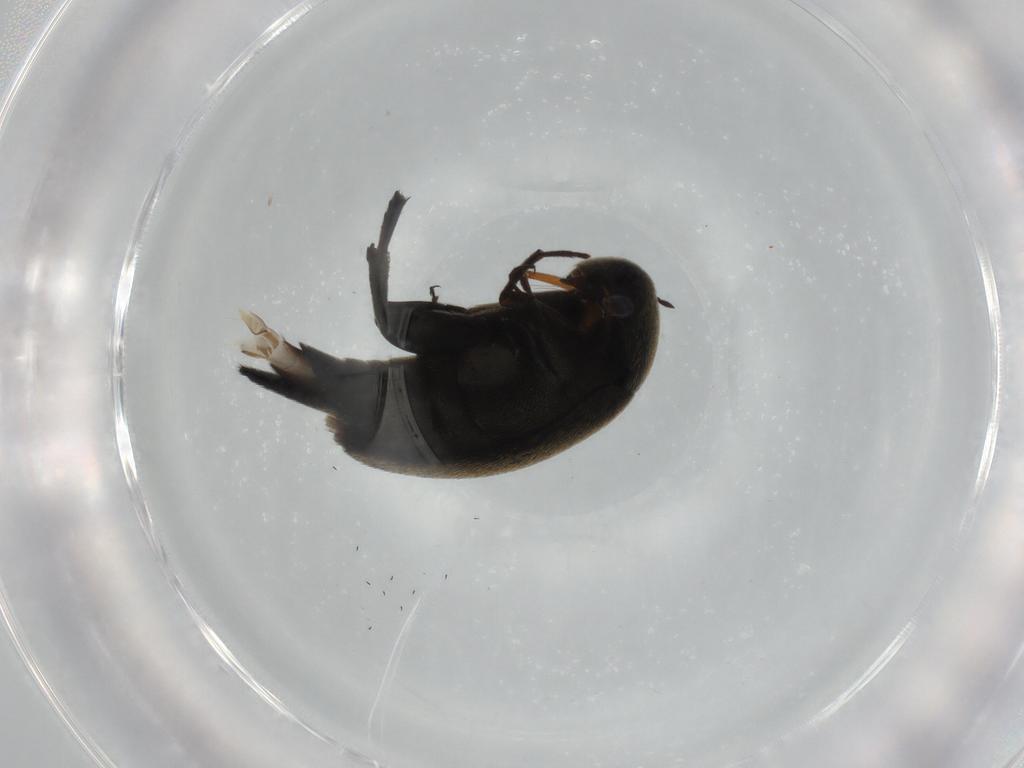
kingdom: Animalia
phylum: Arthropoda
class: Insecta
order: Coleoptera
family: Mordellidae
